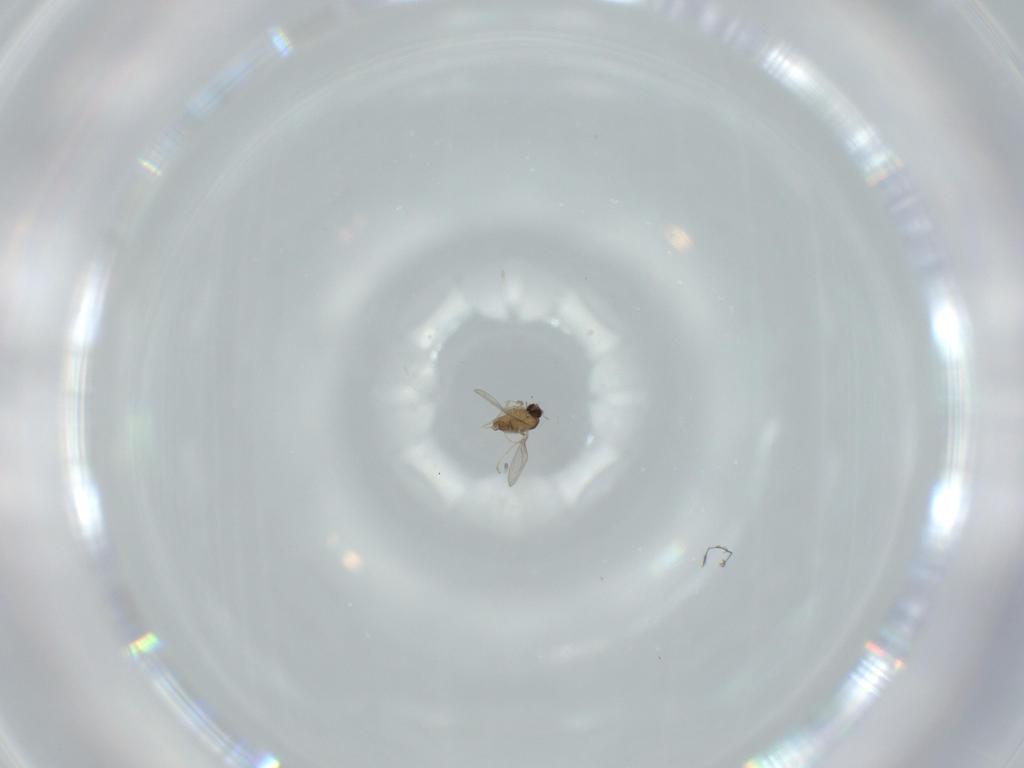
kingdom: Animalia
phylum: Arthropoda
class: Insecta
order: Diptera
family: Cecidomyiidae
